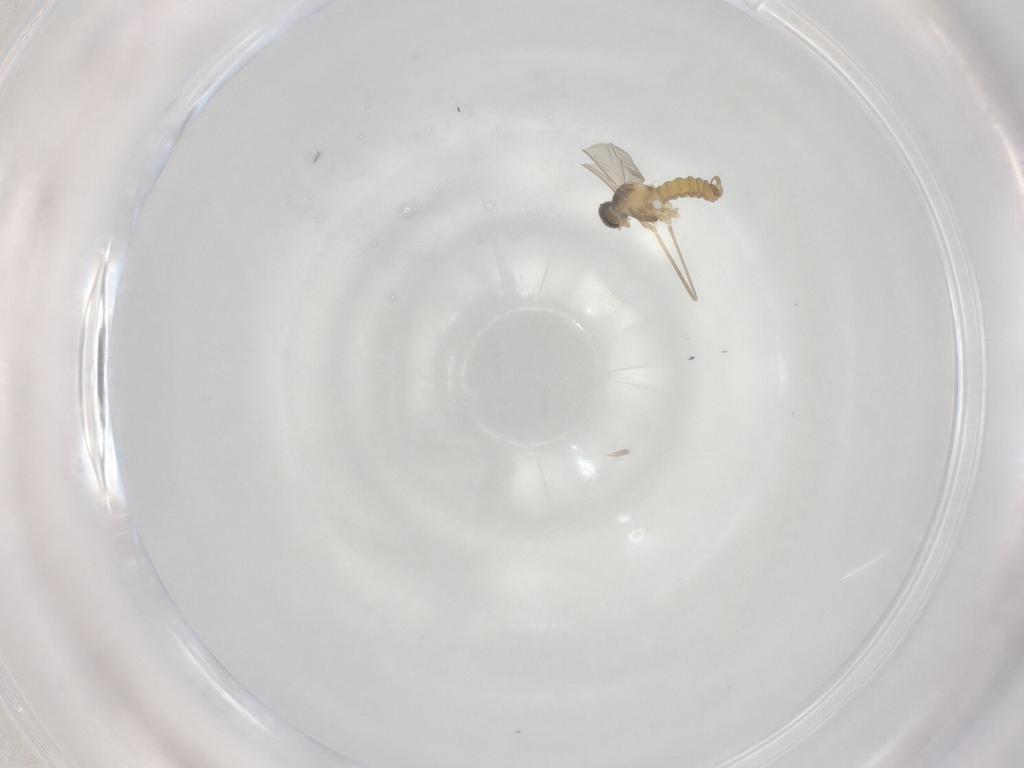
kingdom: Animalia
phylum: Arthropoda
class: Insecta
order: Diptera
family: Cecidomyiidae
